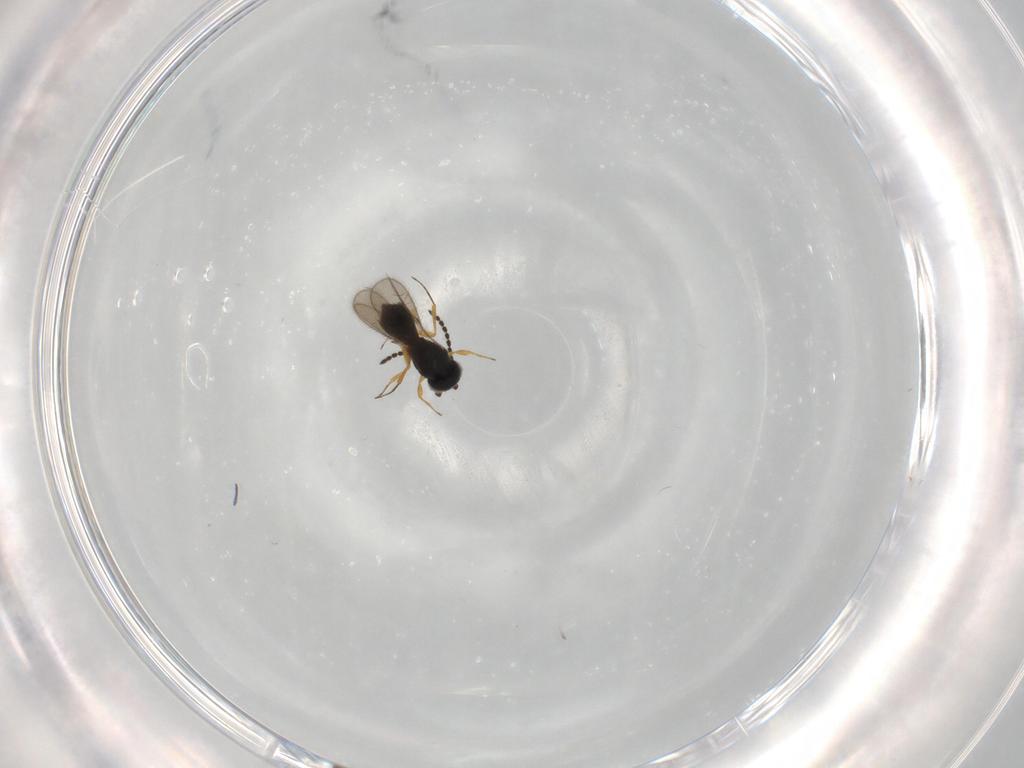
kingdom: Animalia
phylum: Arthropoda
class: Insecta
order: Hymenoptera
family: Scelionidae
